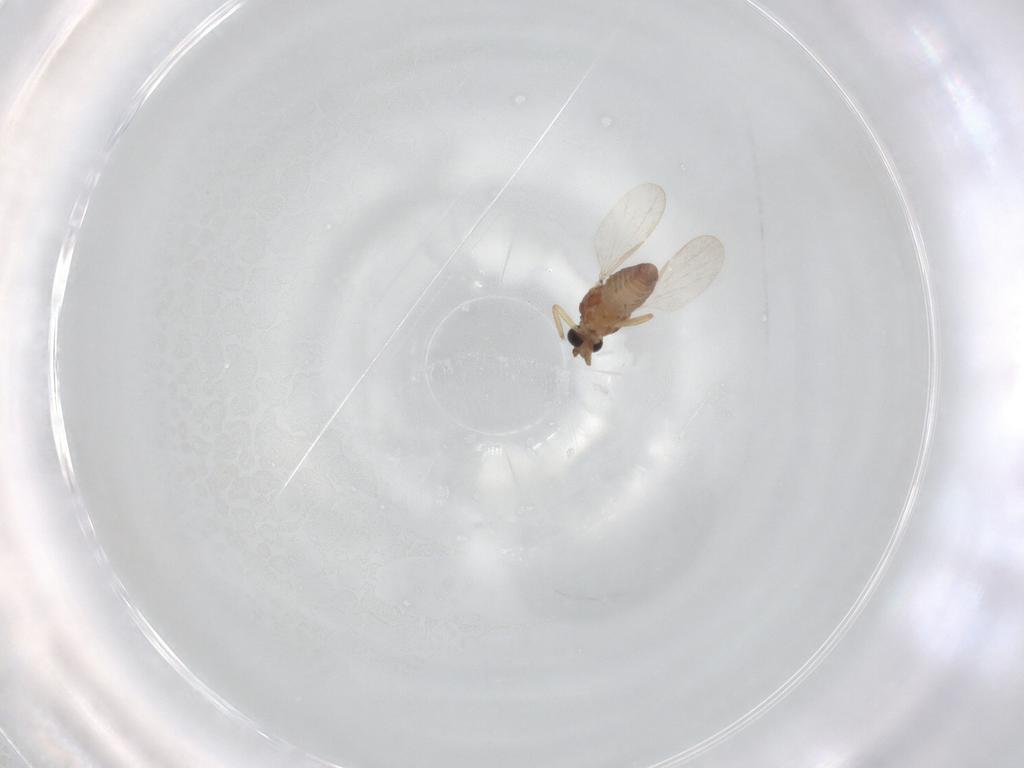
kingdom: Animalia
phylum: Arthropoda
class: Insecta
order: Diptera
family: Ceratopogonidae
